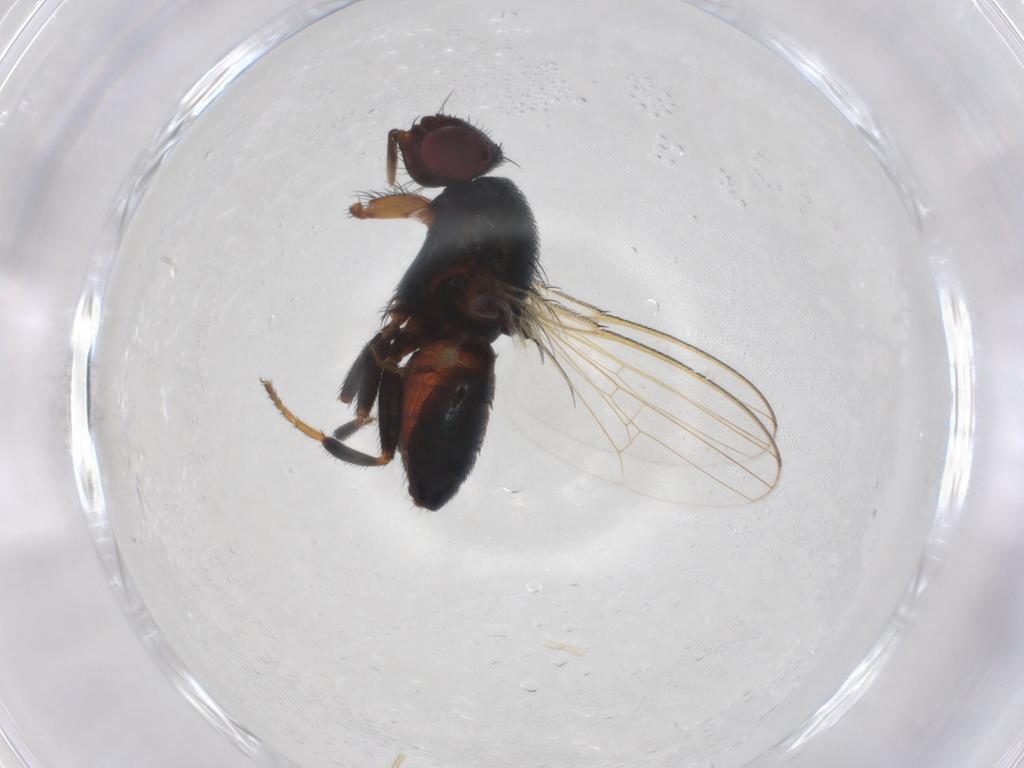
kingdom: Animalia
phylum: Arthropoda
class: Insecta
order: Diptera
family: Milichiidae
